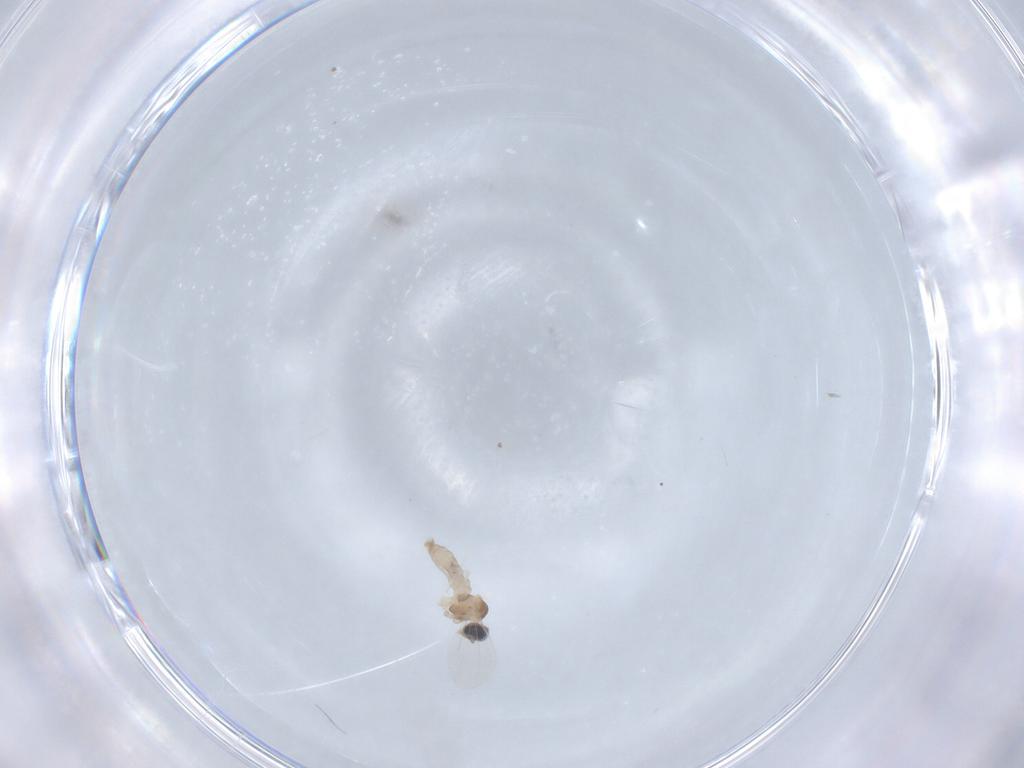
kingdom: Animalia
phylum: Arthropoda
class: Insecta
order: Diptera
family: Cecidomyiidae
